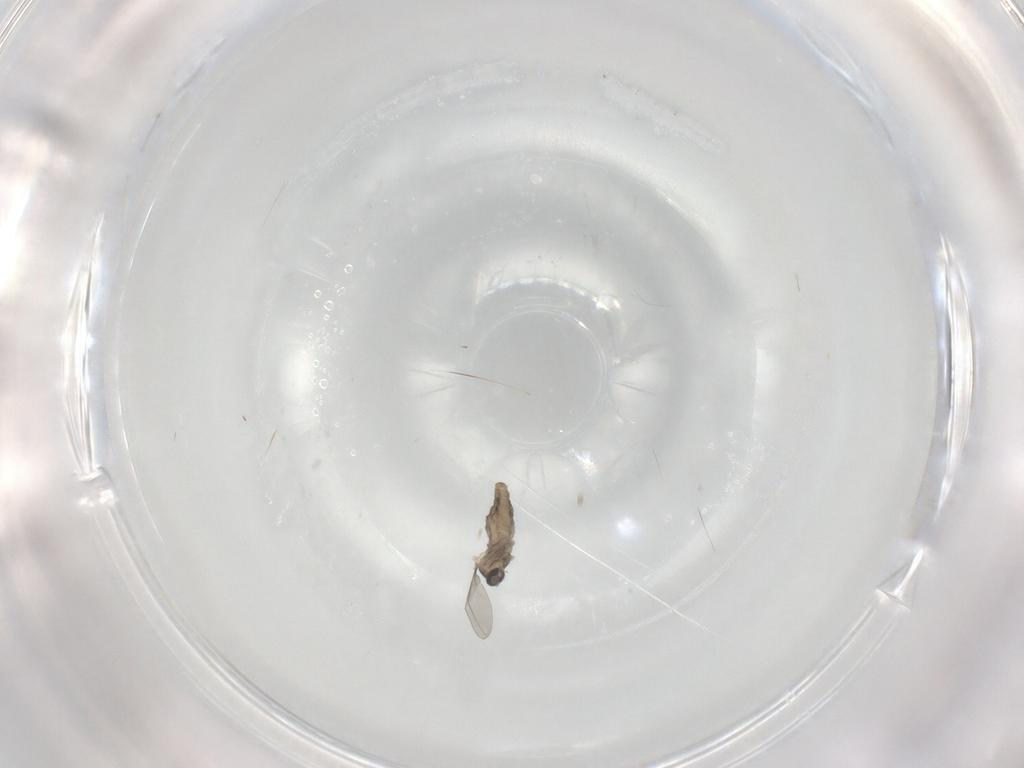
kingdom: Animalia
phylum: Arthropoda
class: Insecta
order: Diptera
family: Cecidomyiidae
